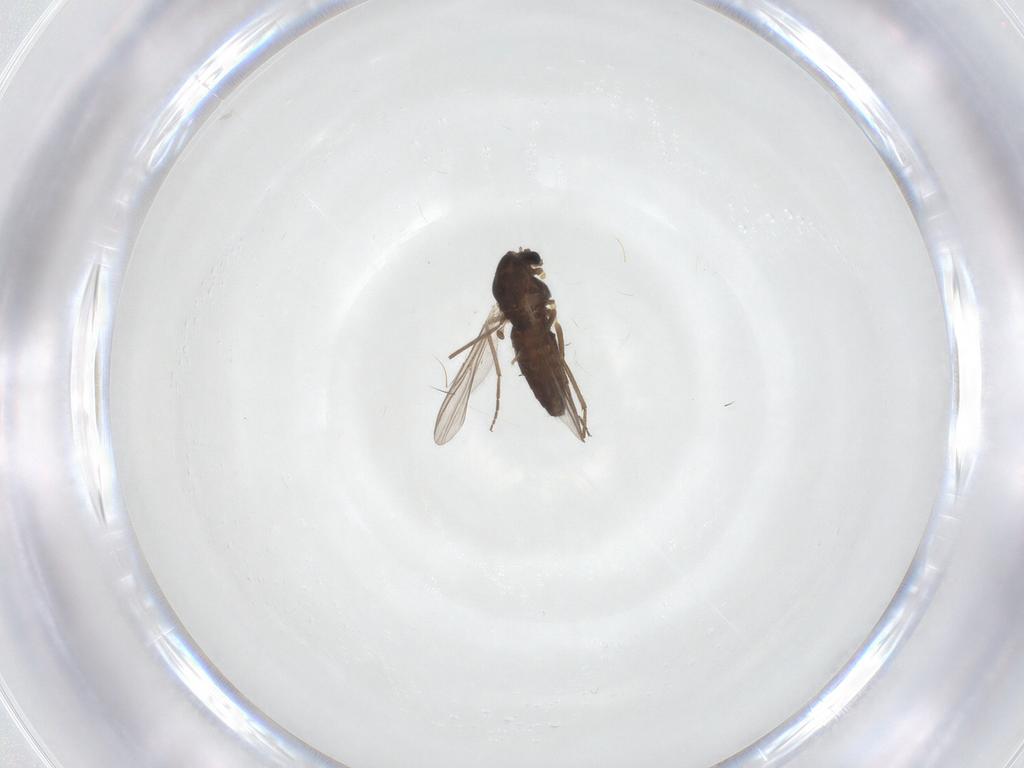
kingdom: Animalia
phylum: Arthropoda
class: Insecta
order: Diptera
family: Chironomidae
